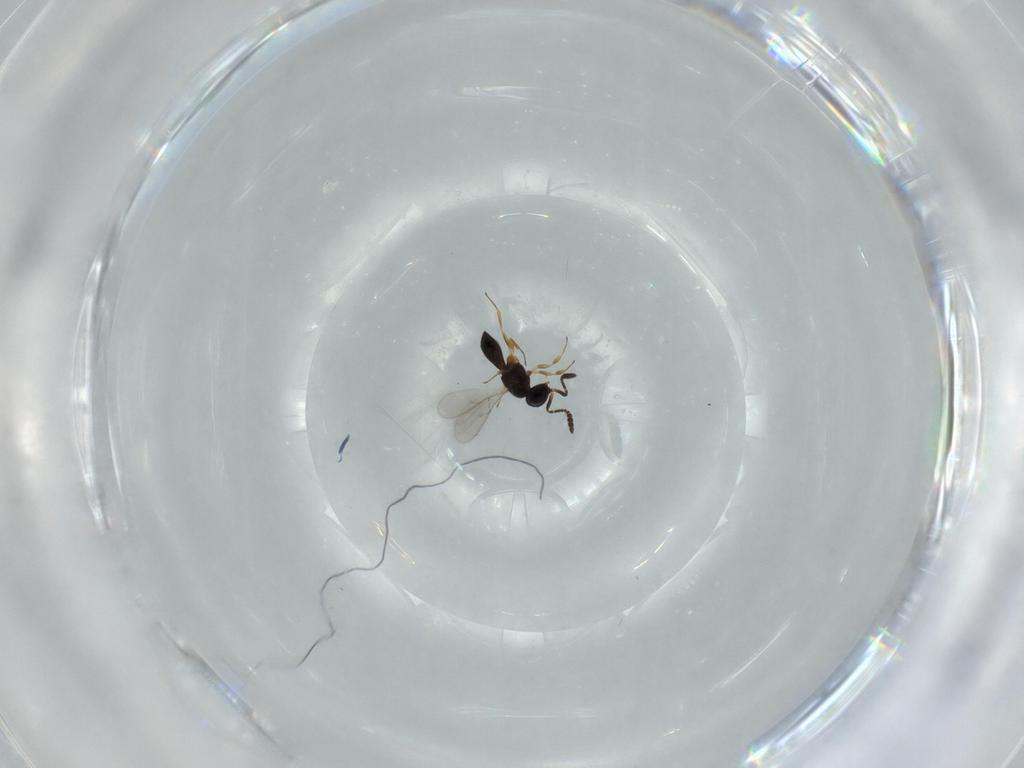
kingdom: Animalia
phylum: Arthropoda
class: Insecta
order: Hymenoptera
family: Scelionidae
